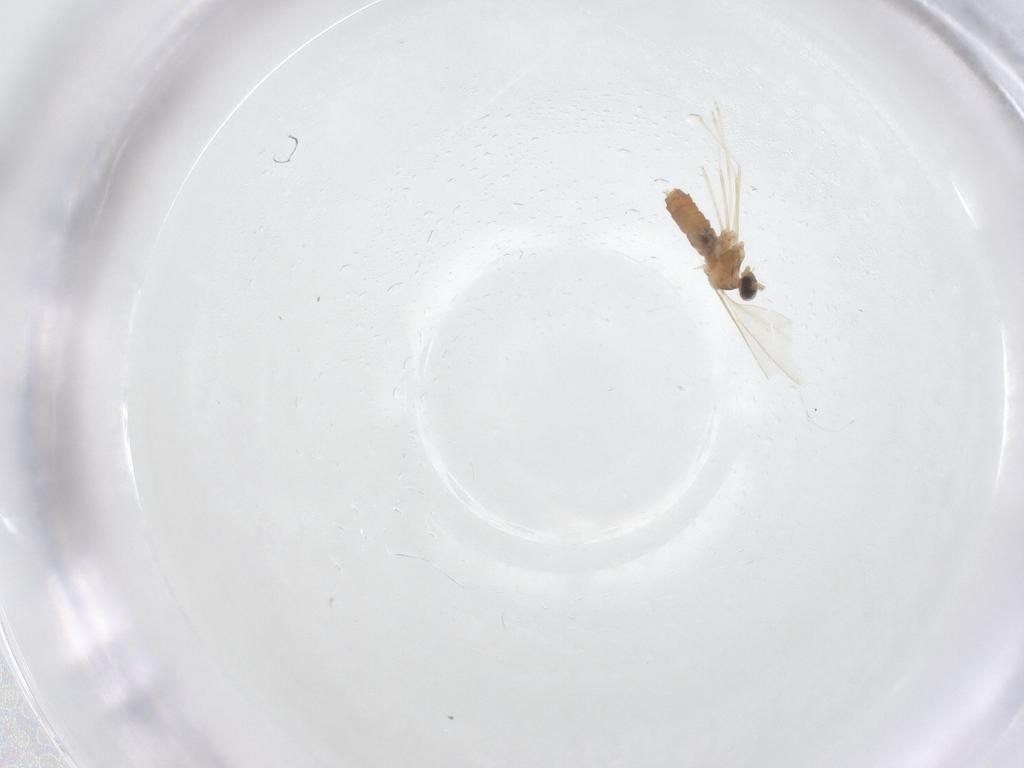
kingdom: Animalia
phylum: Arthropoda
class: Insecta
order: Diptera
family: Cecidomyiidae
